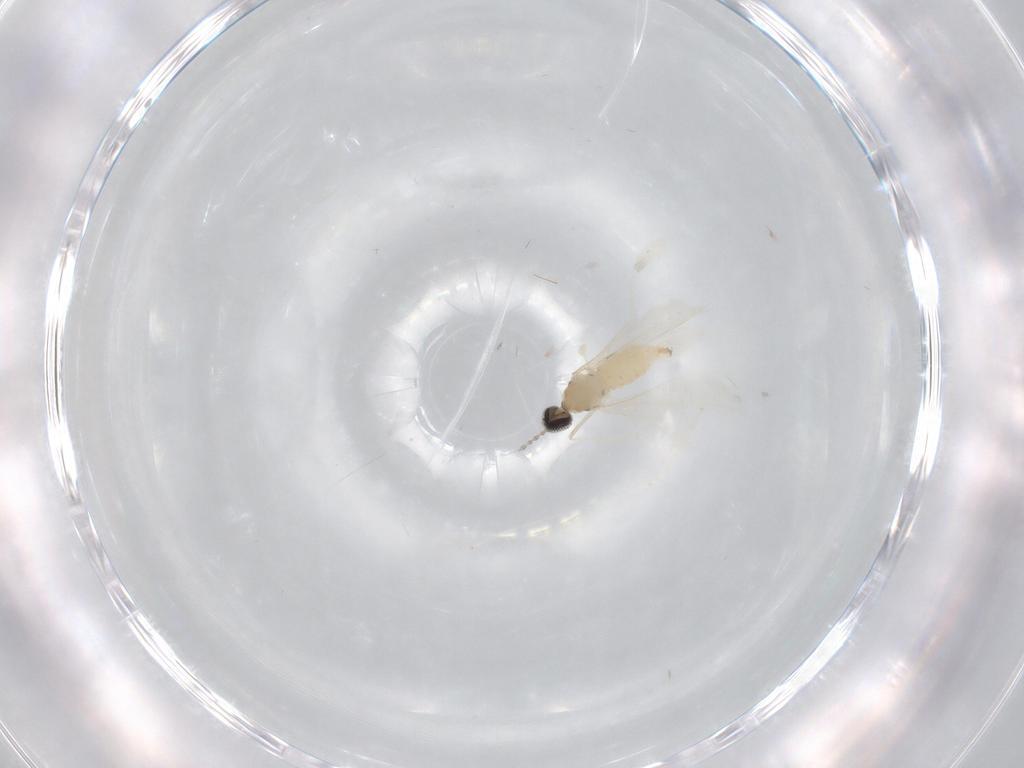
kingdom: Animalia
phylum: Arthropoda
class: Insecta
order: Diptera
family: Cecidomyiidae
